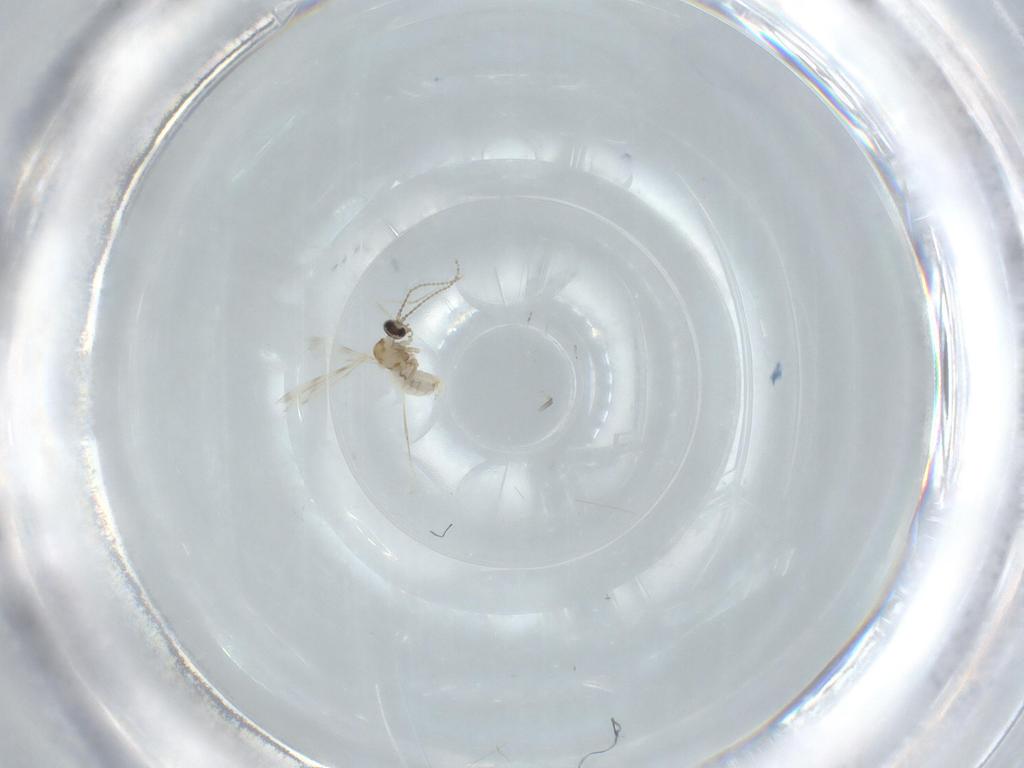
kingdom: Animalia
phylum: Arthropoda
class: Insecta
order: Diptera
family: Cecidomyiidae
